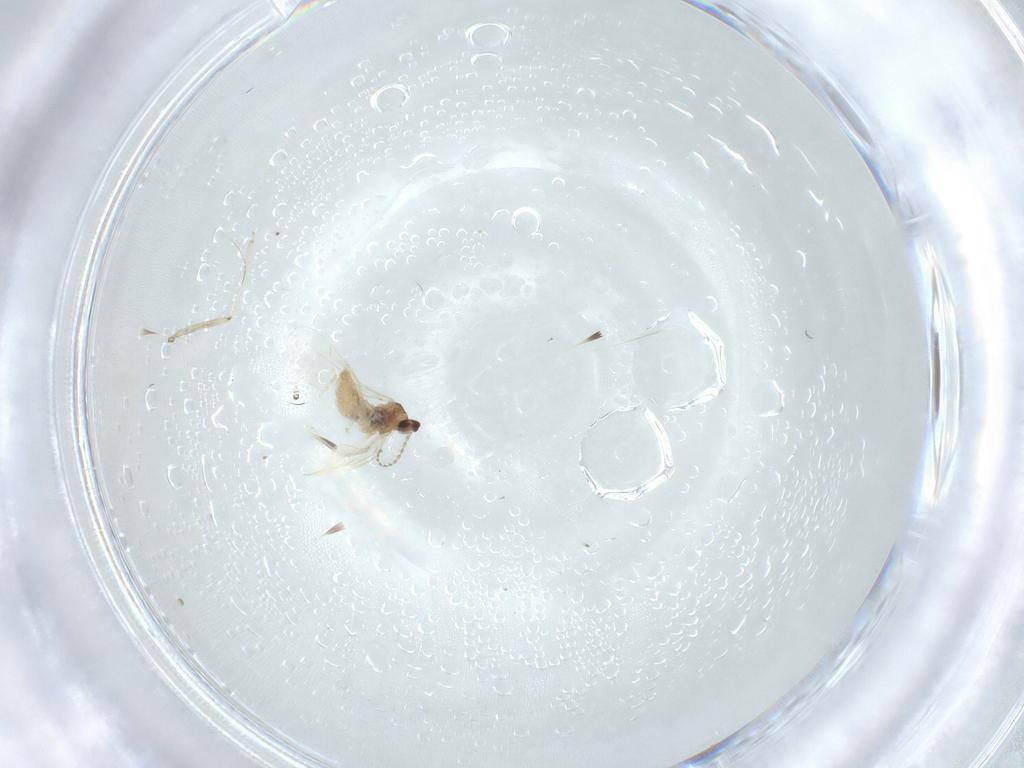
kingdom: Animalia
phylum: Arthropoda
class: Insecta
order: Diptera
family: Cecidomyiidae
